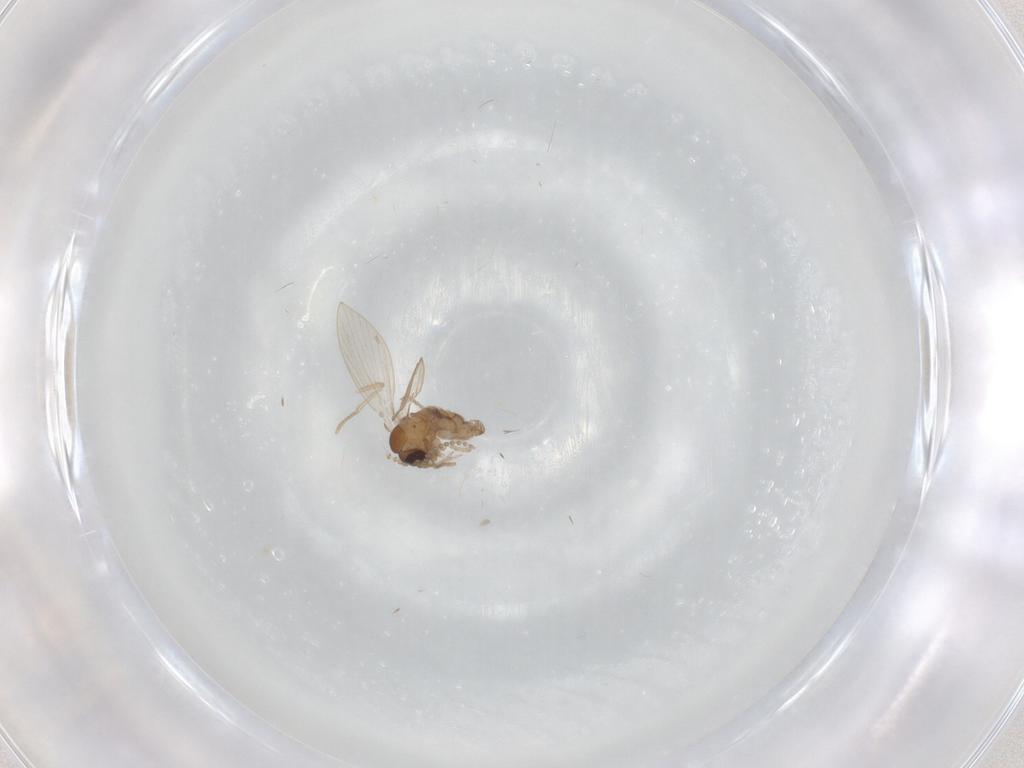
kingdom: Animalia
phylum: Arthropoda
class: Insecta
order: Diptera
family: Psychodidae
